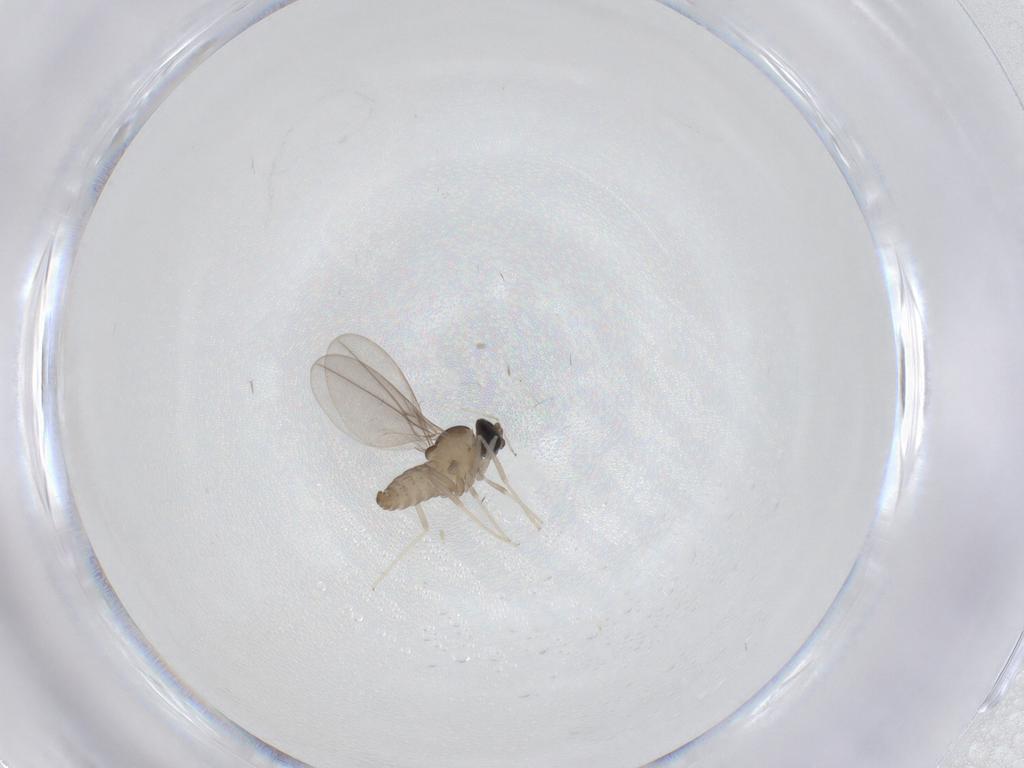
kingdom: Animalia
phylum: Arthropoda
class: Insecta
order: Diptera
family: Cecidomyiidae
